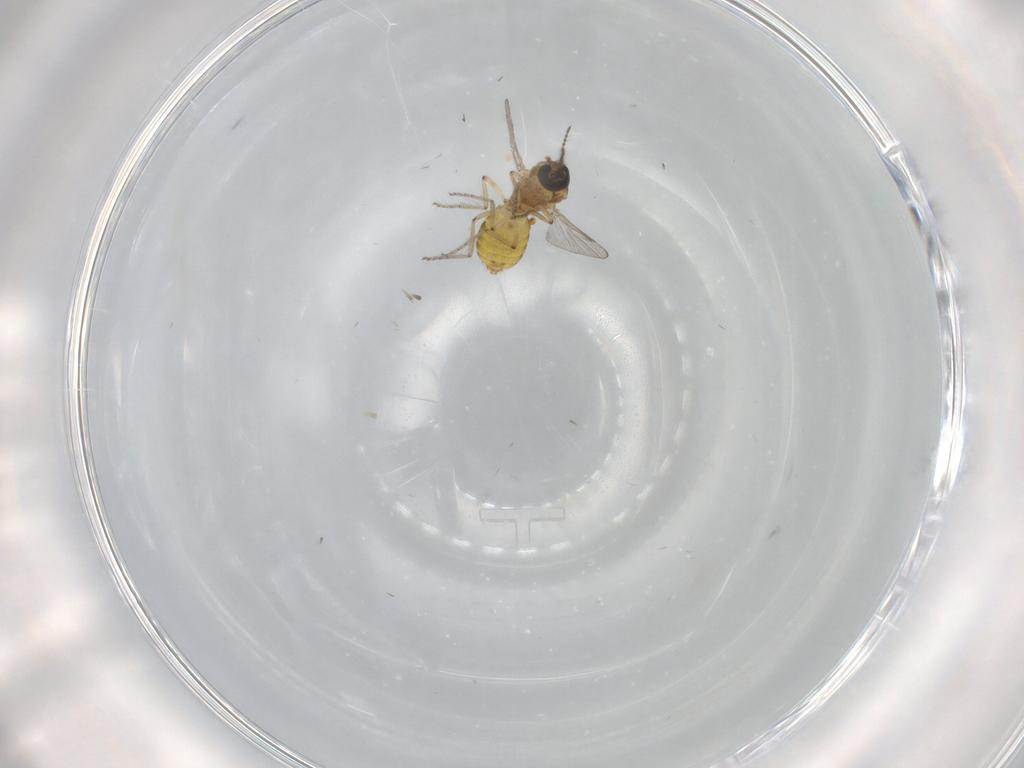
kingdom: Animalia
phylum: Arthropoda
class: Insecta
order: Diptera
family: Ceratopogonidae
